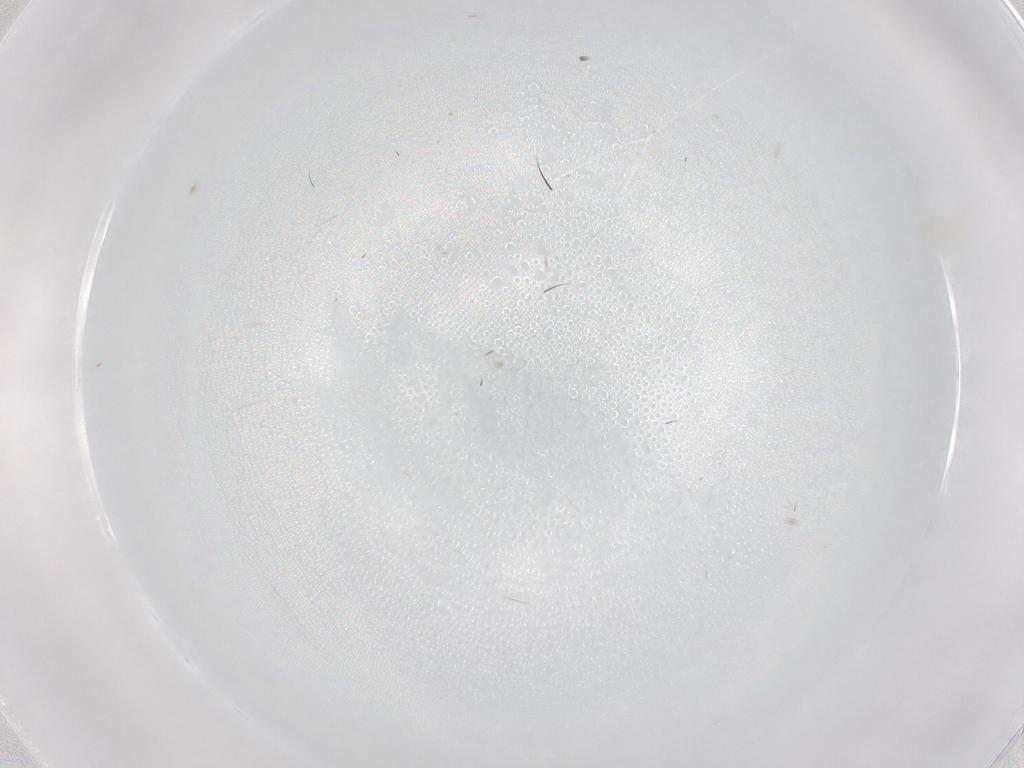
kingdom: Animalia
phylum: Arthropoda
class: Insecta
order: Lepidoptera
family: Gracillariidae
